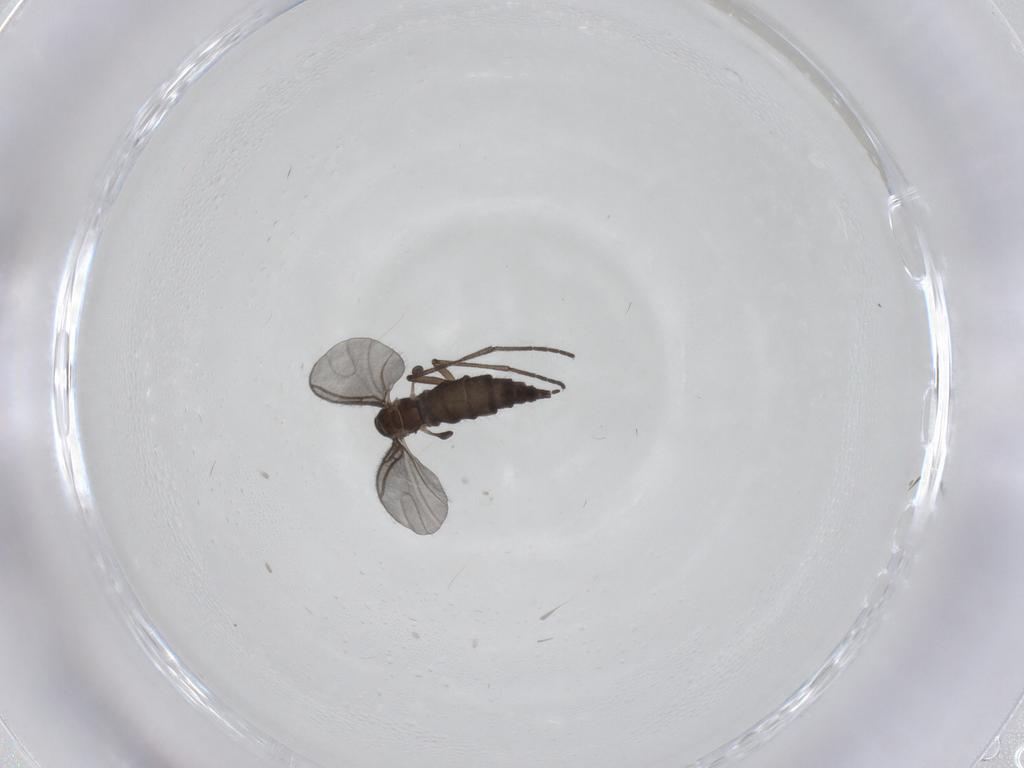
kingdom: Animalia
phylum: Arthropoda
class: Insecta
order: Diptera
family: Sciaridae
